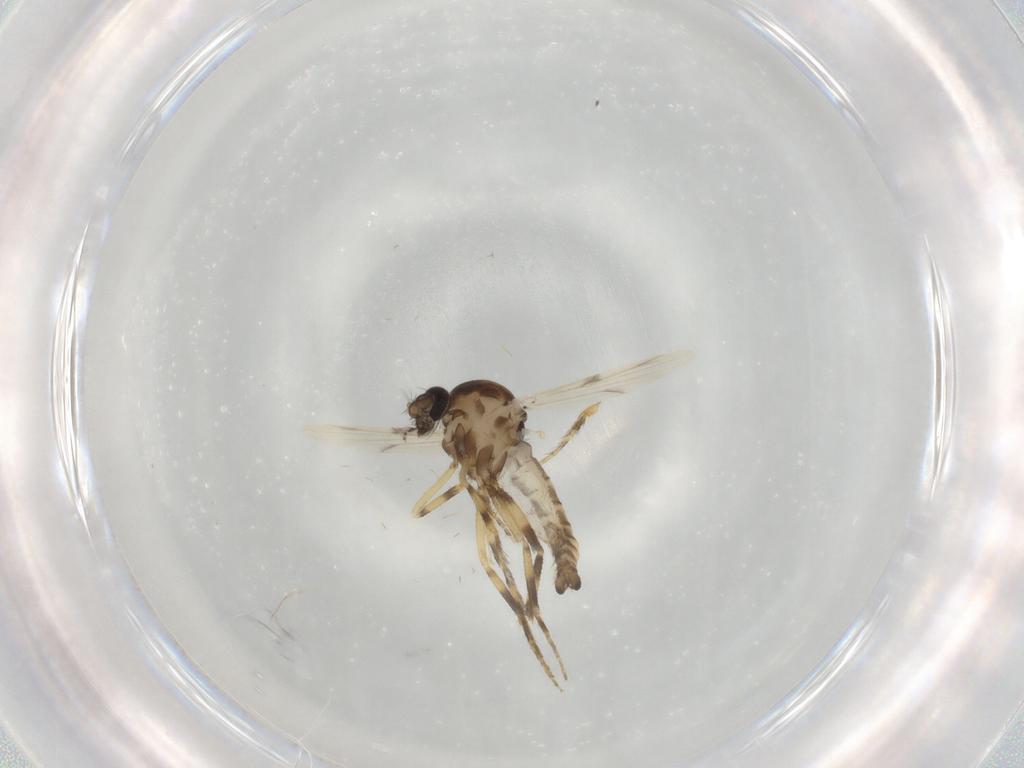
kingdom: Animalia
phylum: Arthropoda
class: Insecta
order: Diptera
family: Ceratopogonidae
